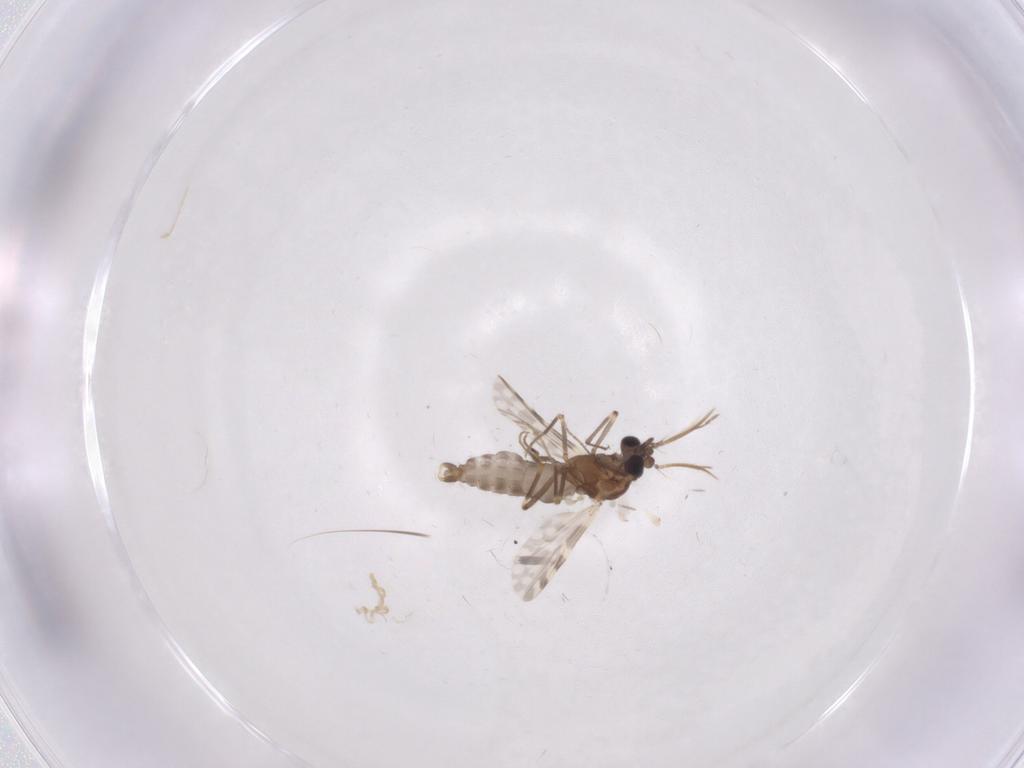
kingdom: Animalia
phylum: Arthropoda
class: Insecta
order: Diptera
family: Ceratopogonidae
